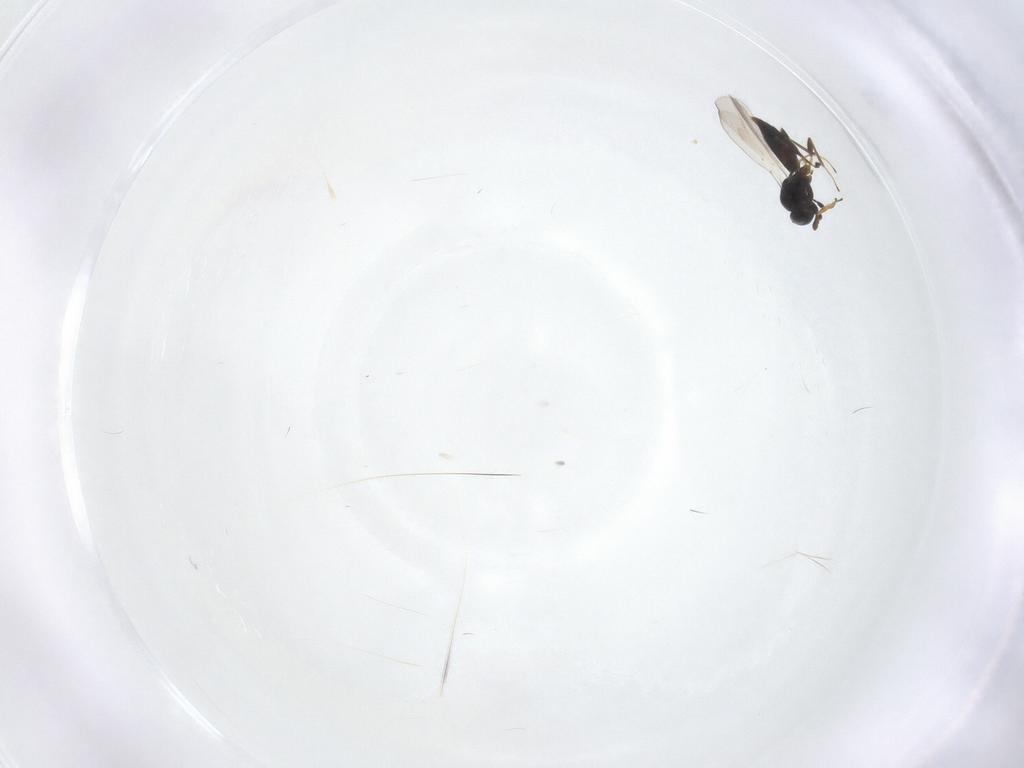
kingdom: Animalia
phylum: Arthropoda
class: Insecta
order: Hymenoptera
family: Platygastridae
